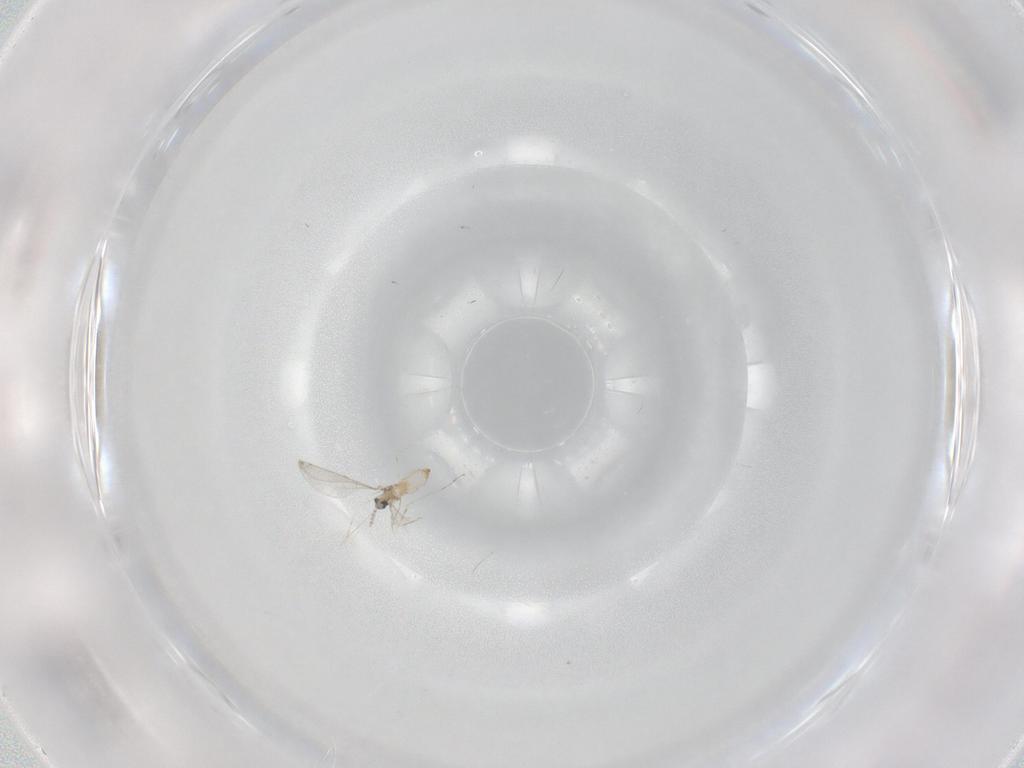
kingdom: Animalia
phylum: Arthropoda
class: Insecta
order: Diptera
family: Cecidomyiidae
